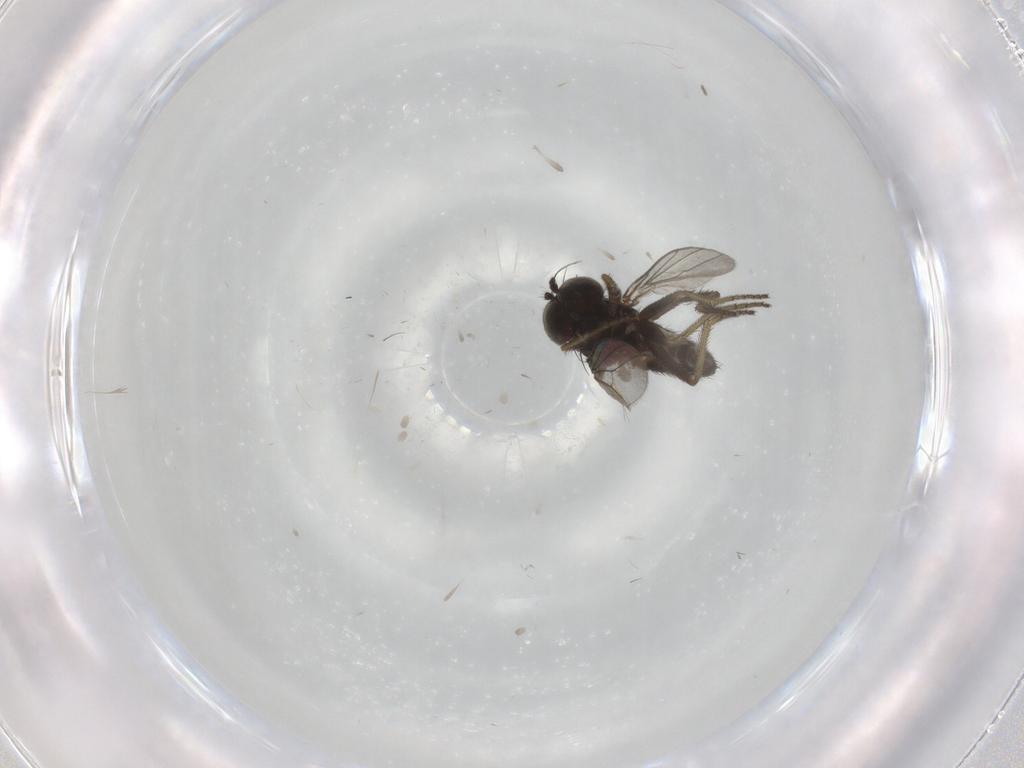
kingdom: Animalia
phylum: Arthropoda
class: Insecta
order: Diptera
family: Dolichopodidae
